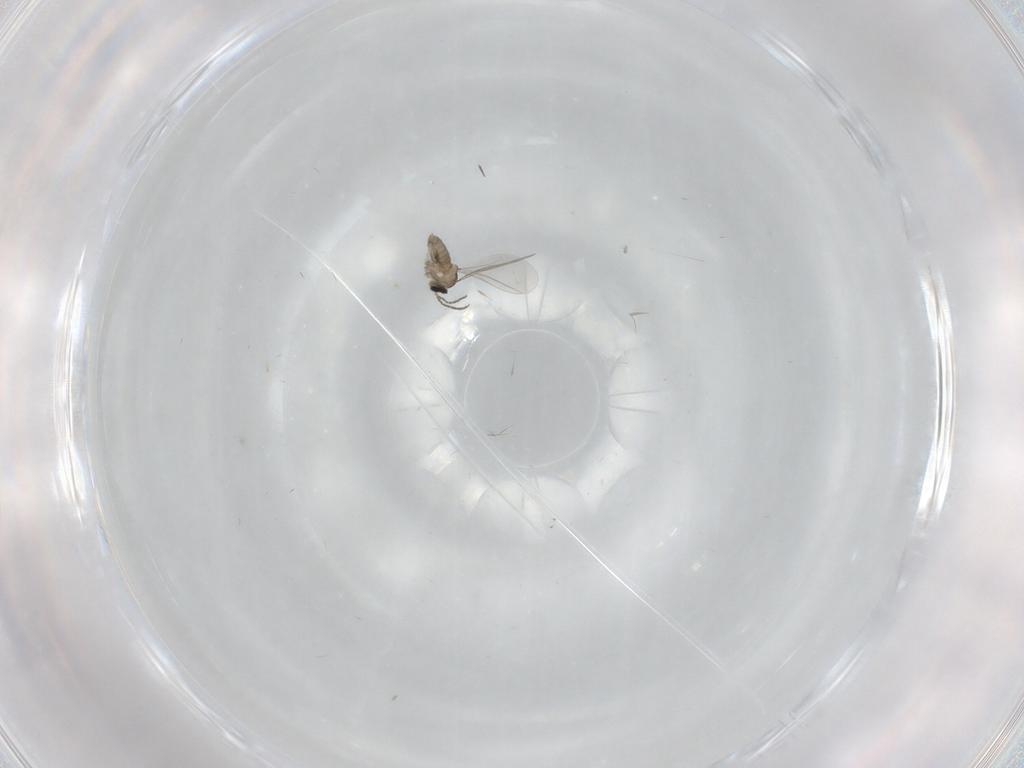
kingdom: Animalia
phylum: Arthropoda
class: Insecta
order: Diptera
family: Cecidomyiidae
